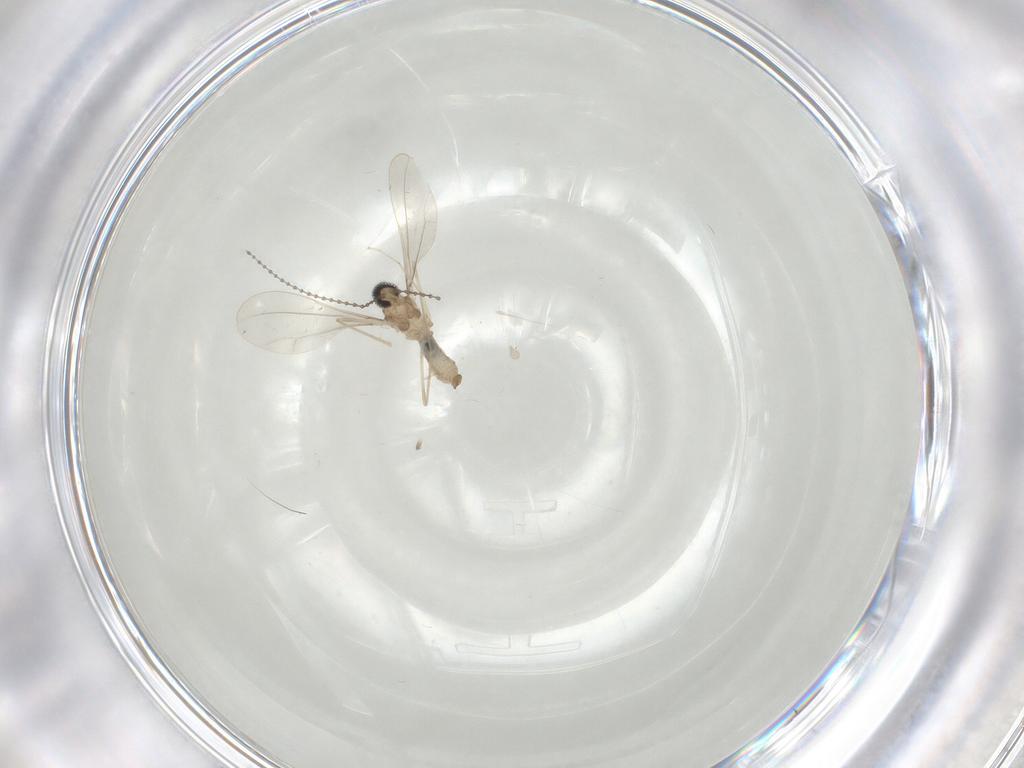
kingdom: Animalia
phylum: Arthropoda
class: Insecta
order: Diptera
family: Cecidomyiidae
